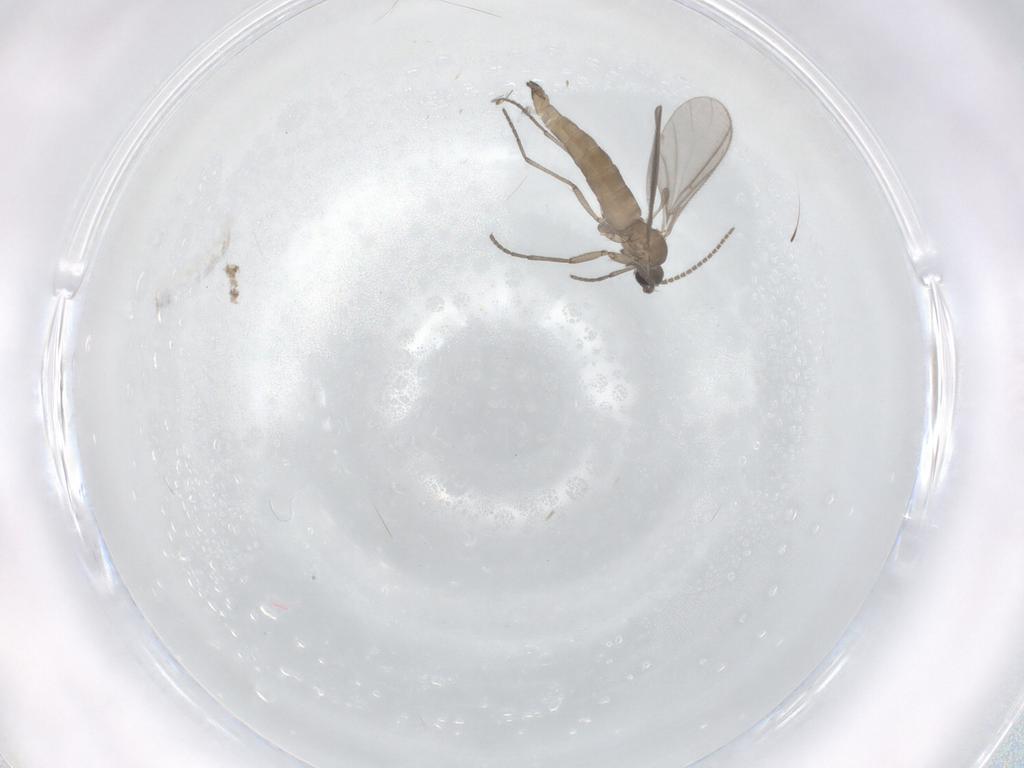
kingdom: Animalia
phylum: Arthropoda
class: Insecta
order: Diptera
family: Sciaridae
